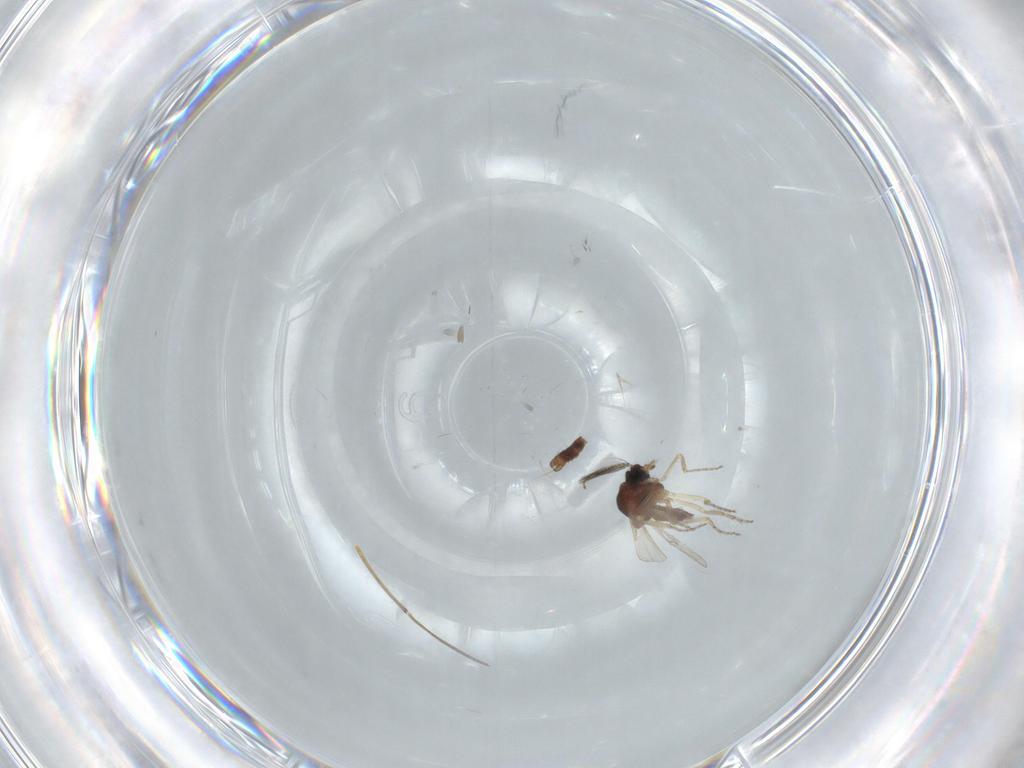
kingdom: Animalia
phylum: Arthropoda
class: Insecta
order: Diptera
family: Ceratopogonidae
